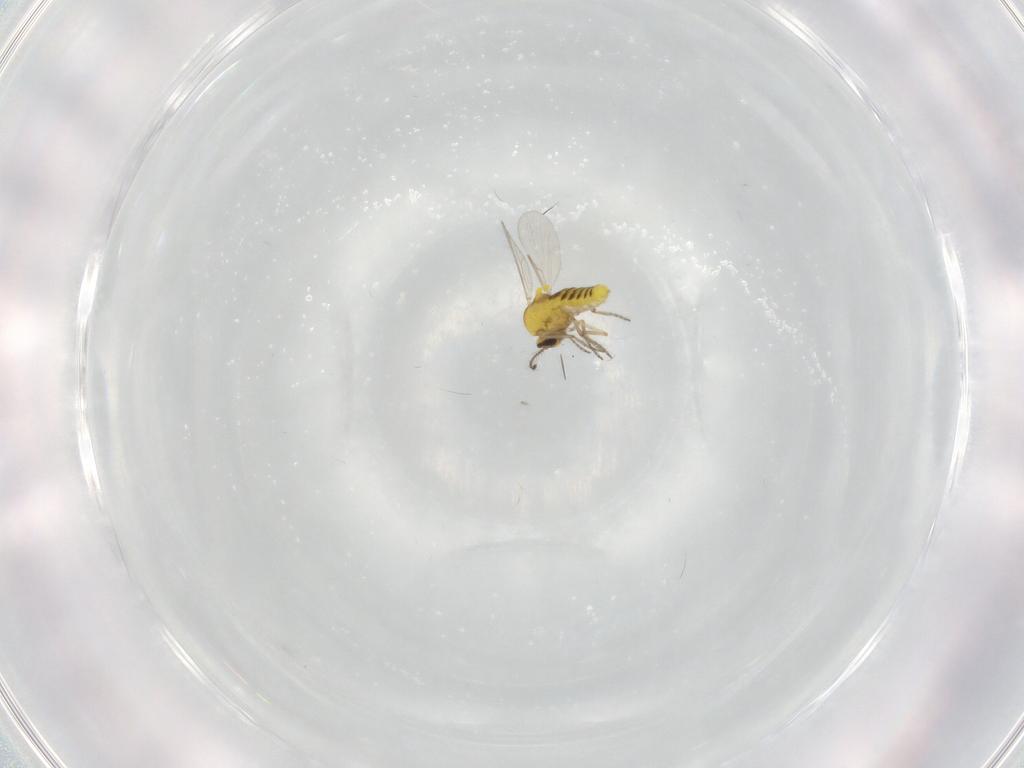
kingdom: Animalia
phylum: Arthropoda
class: Insecta
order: Diptera
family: Ceratopogonidae
